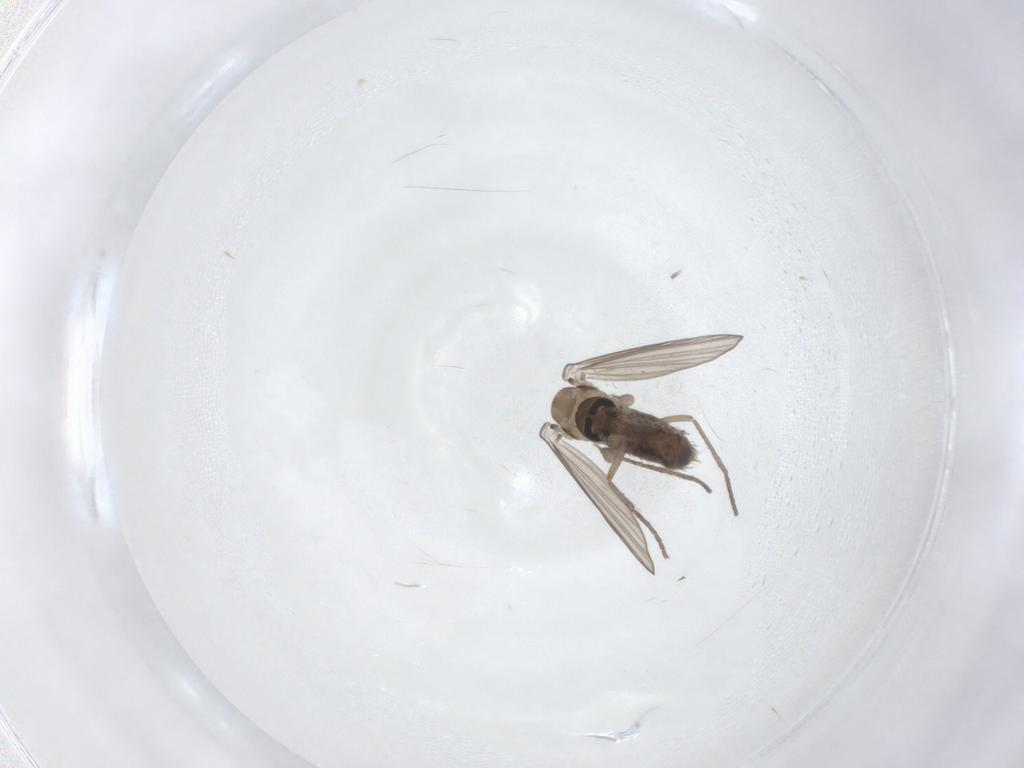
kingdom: Animalia
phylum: Arthropoda
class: Insecta
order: Diptera
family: Psychodidae
